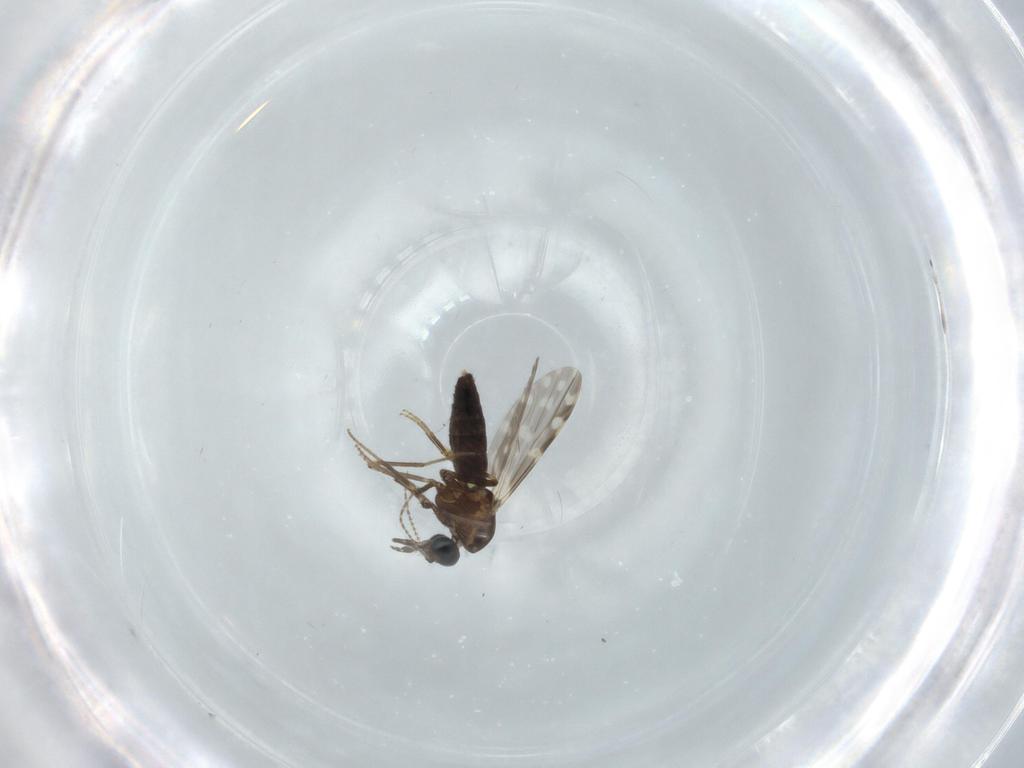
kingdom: Animalia
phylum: Arthropoda
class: Insecta
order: Diptera
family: Ceratopogonidae
